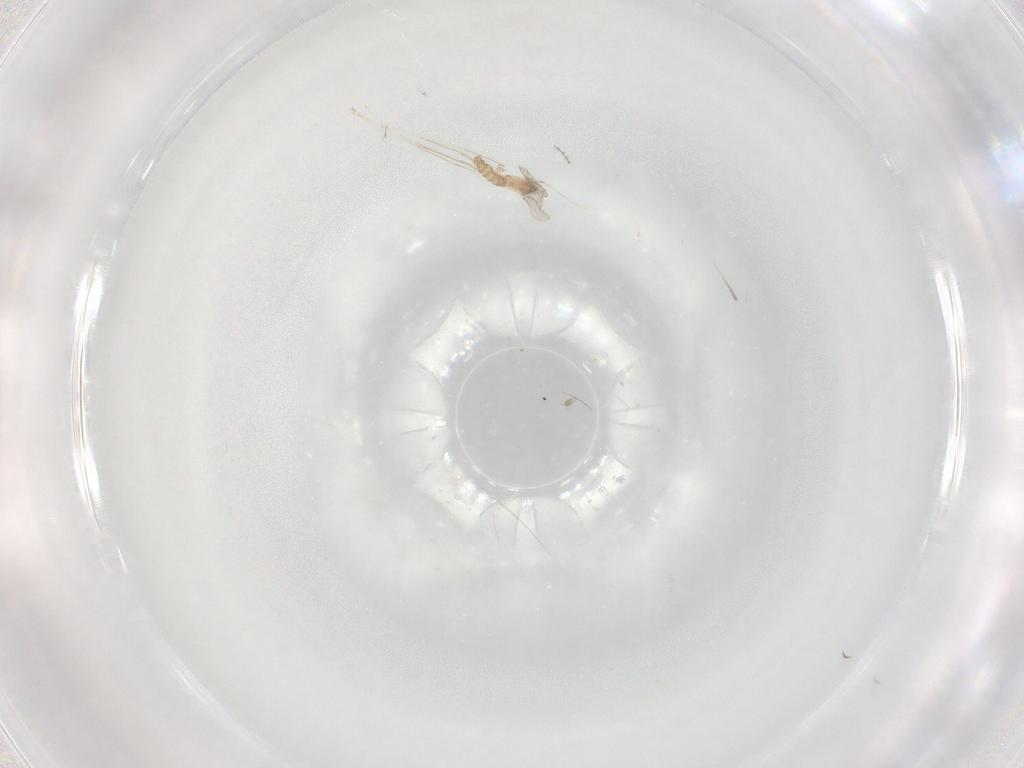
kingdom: Animalia
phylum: Arthropoda
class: Insecta
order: Diptera
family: Cecidomyiidae
